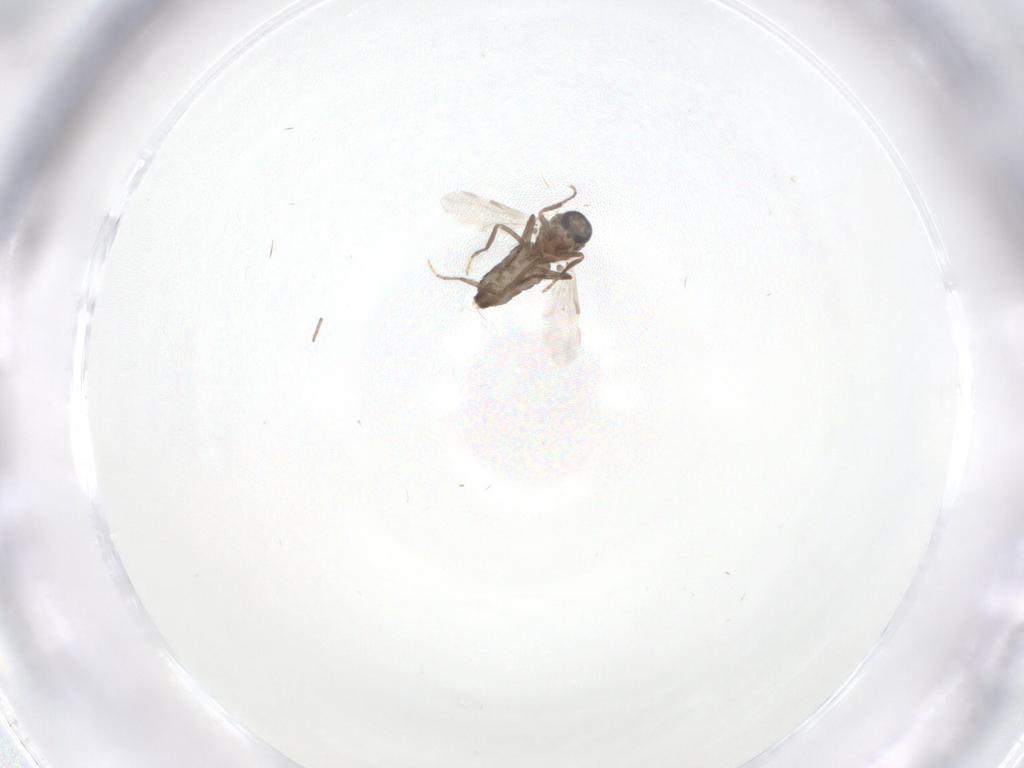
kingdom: Animalia
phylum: Arthropoda
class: Insecta
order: Diptera
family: Ceratopogonidae
